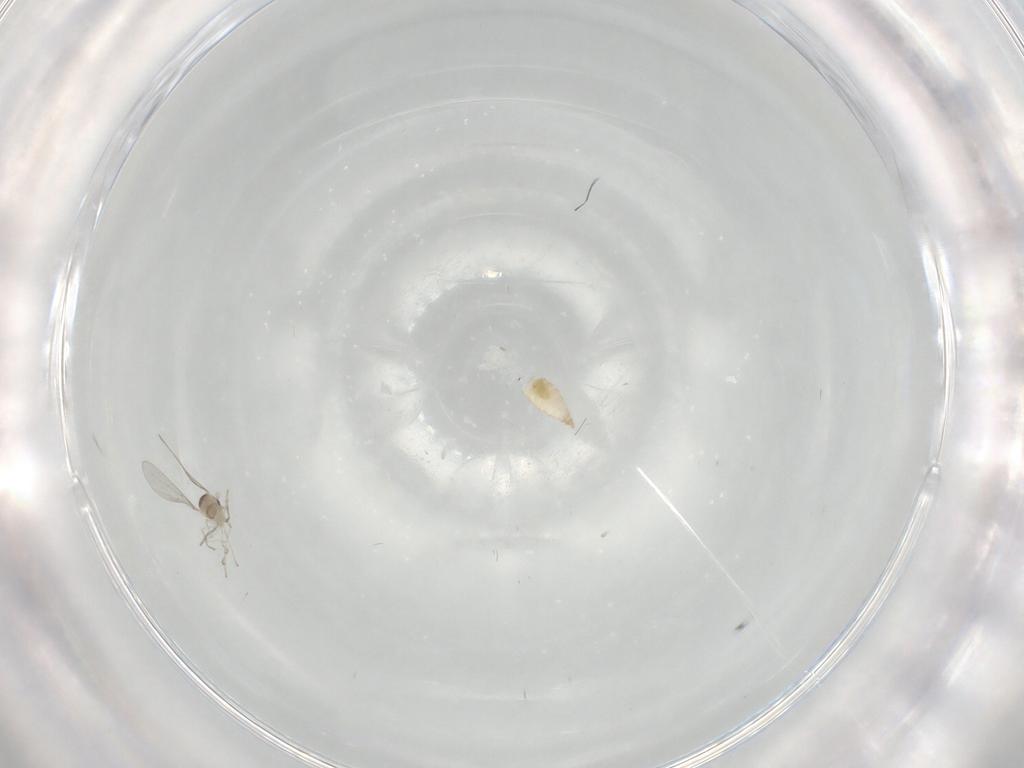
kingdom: Animalia
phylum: Arthropoda
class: Insecta
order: Diptera
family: Cecidomyiidae
